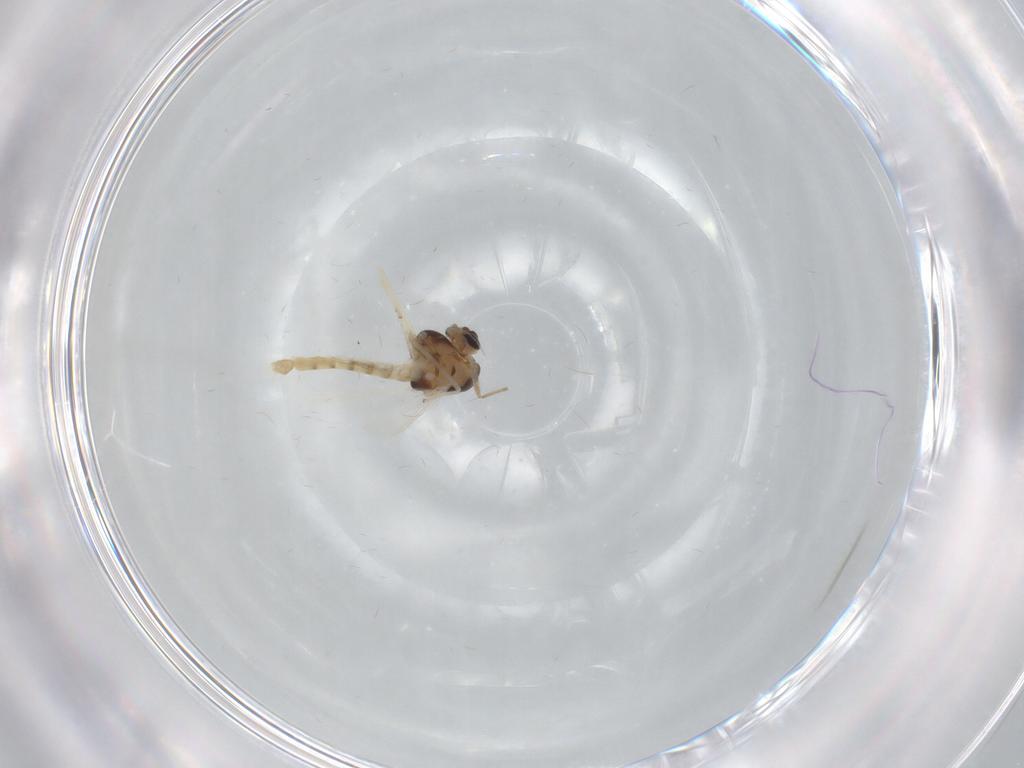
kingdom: Animalia
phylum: Arthropoda
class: Insecta
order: Diptera
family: Chironomidae
